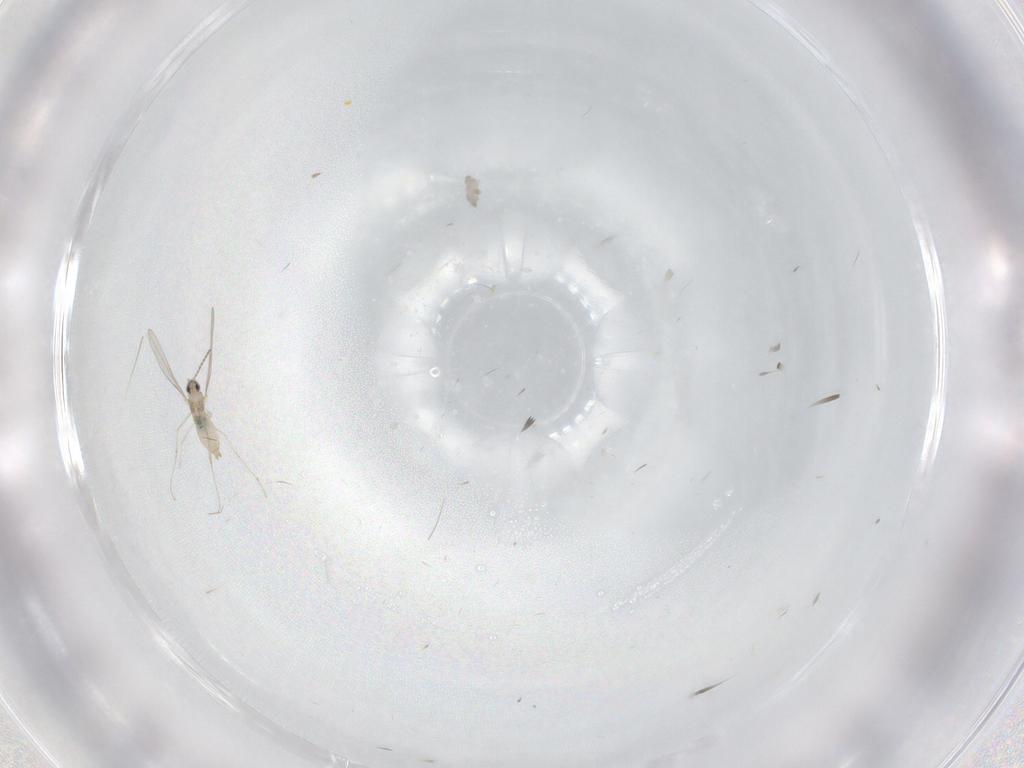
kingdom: Animalia
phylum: Arthropoda
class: Insecta
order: Diptera
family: Cecidomyiidae
